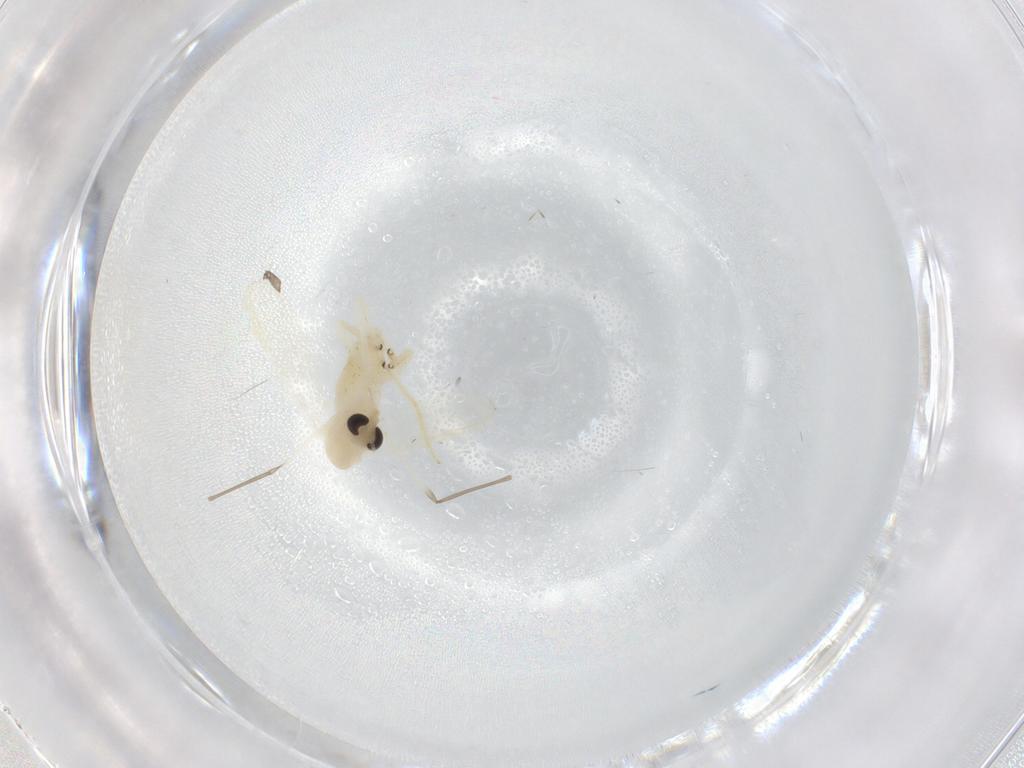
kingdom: Animalia
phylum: Arthropoda
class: Insecta
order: Diptera
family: Chironomidae
